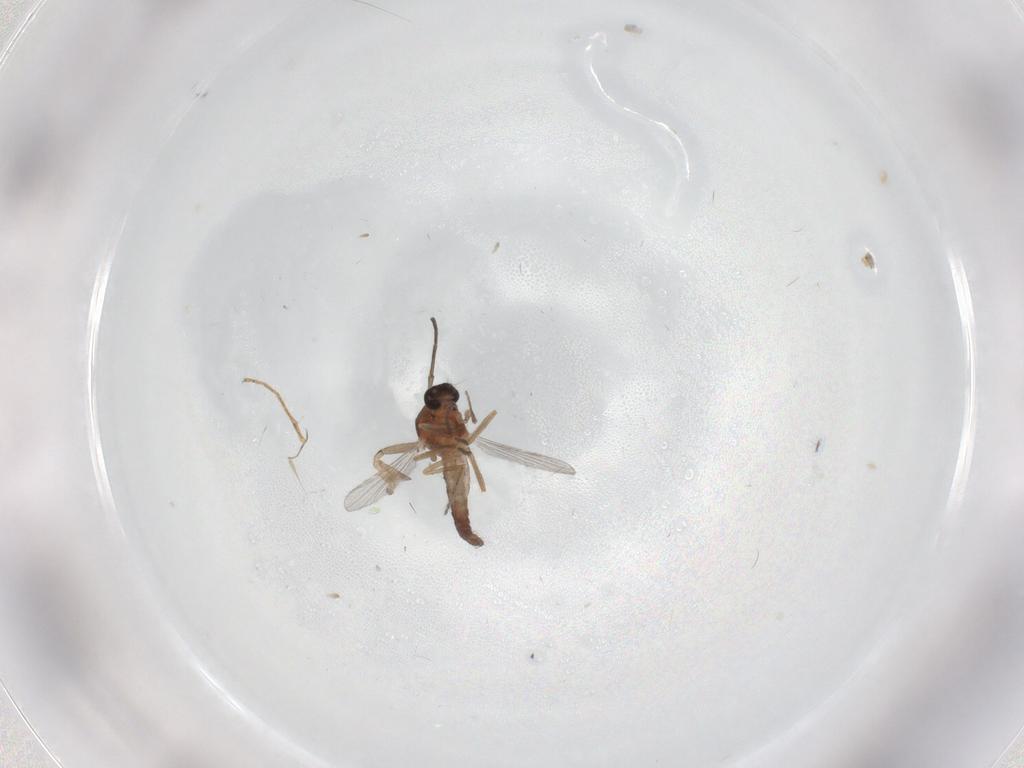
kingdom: Animalia
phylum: Arthropoda
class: Insecta
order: Diptera
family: Ceratopogonidae
